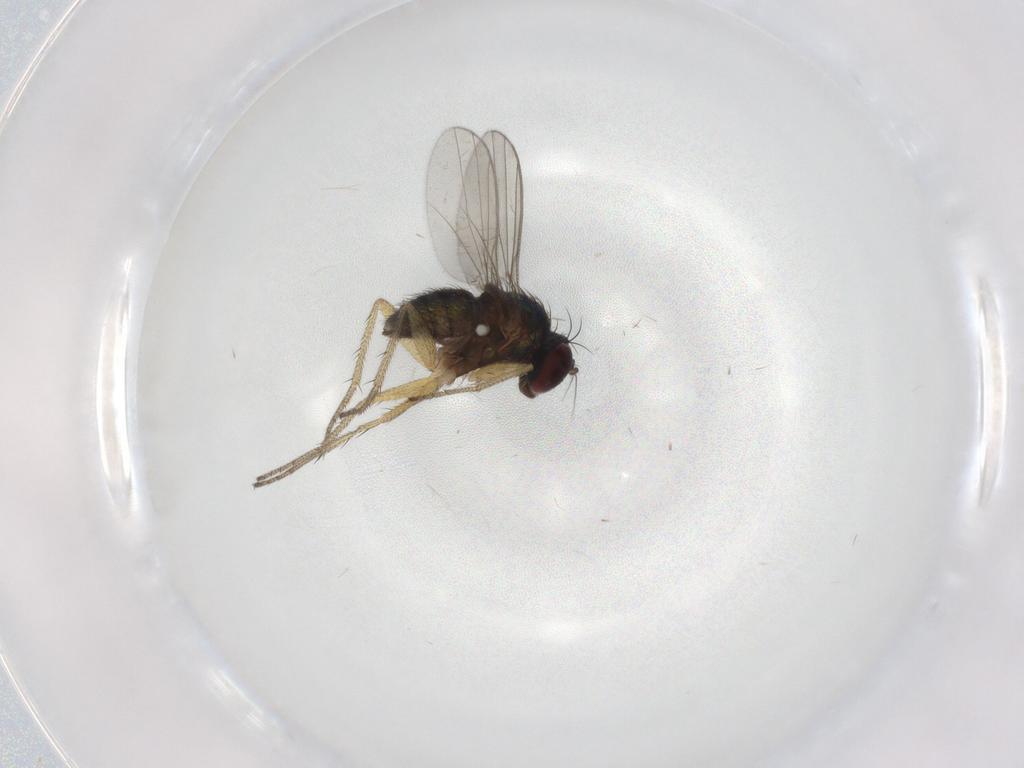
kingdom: Animalia
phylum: Arthropoda
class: Insecta
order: Diptera
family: Dolichopodidae
